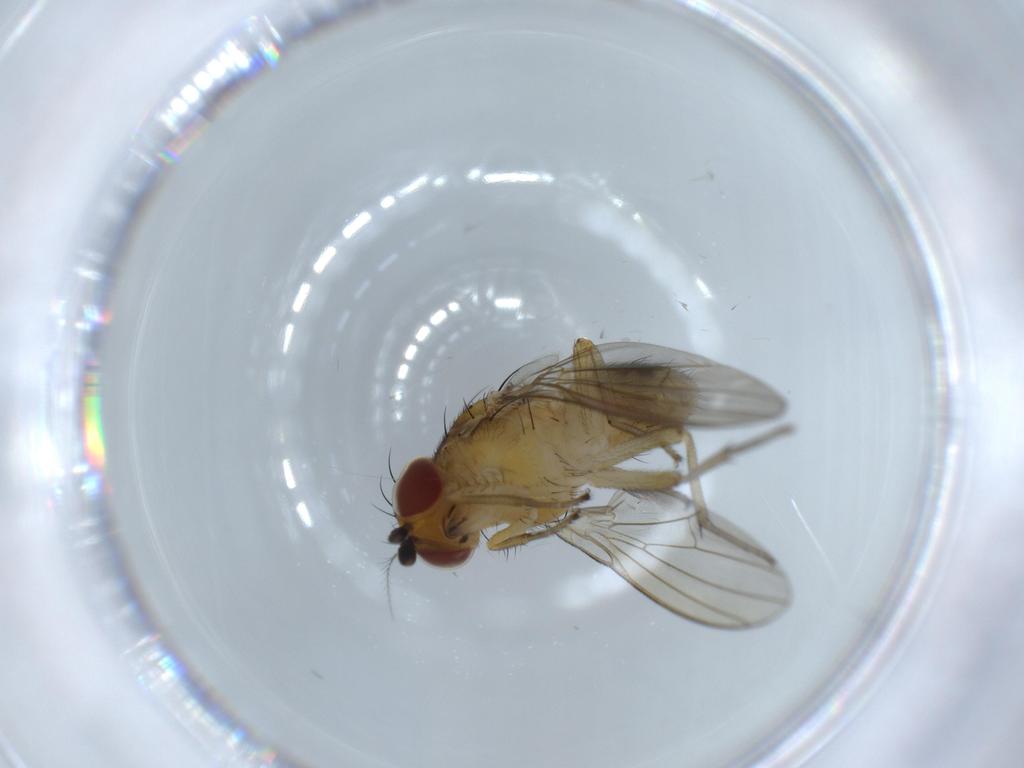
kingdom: Animalia
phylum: Arthropoda
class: Insecta
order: Diptera
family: Lauxaniidae
